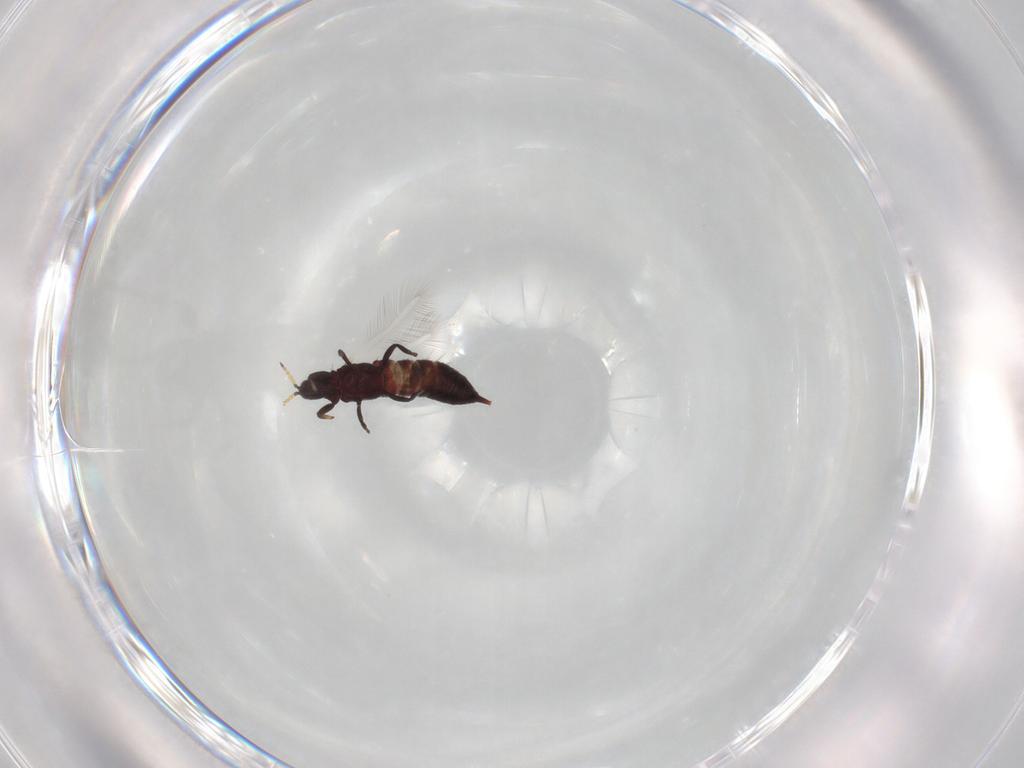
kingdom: Animalia
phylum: Arthropoda
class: Insecta
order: Thysanoptera
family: Phlaeothripidae
